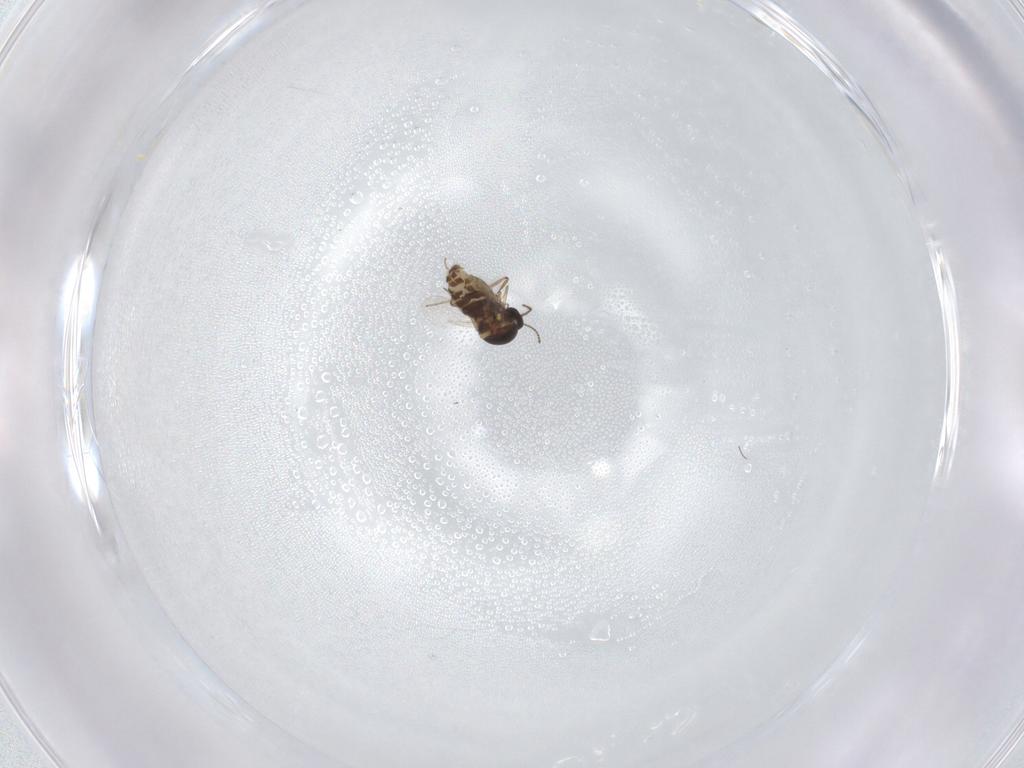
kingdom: Animalia
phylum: Arthropoda
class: Insecta
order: Diptera
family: Ceratopogonidae
